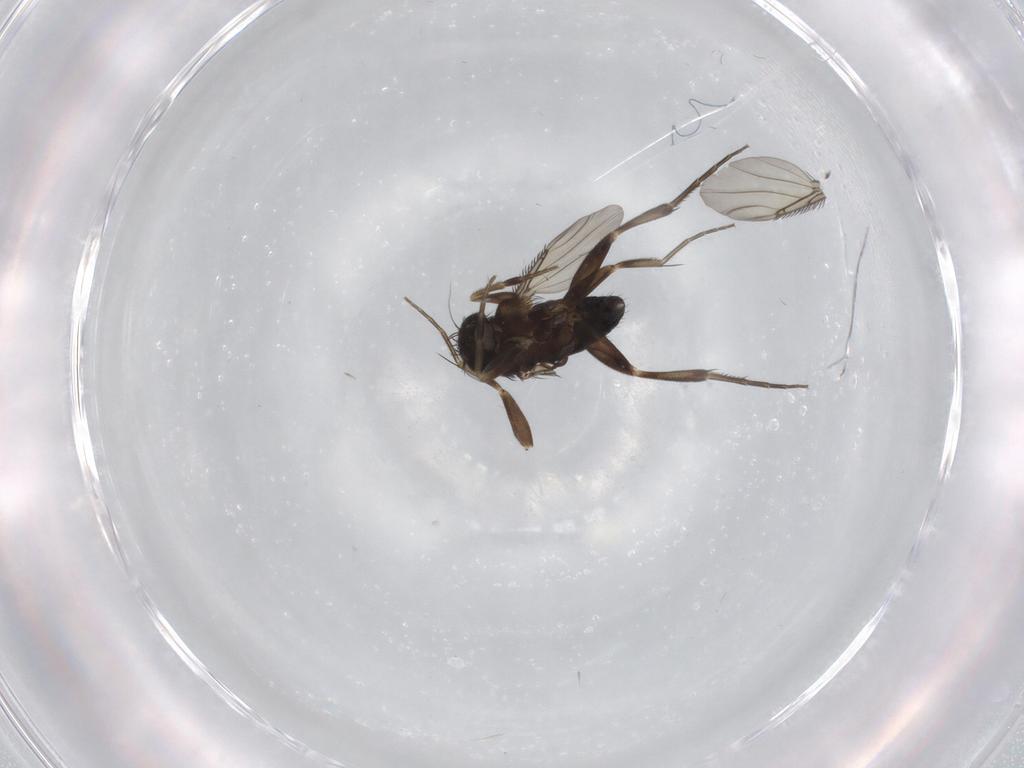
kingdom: Animalia
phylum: Arthropoda
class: Insecta
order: Diptera
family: Phoridae
